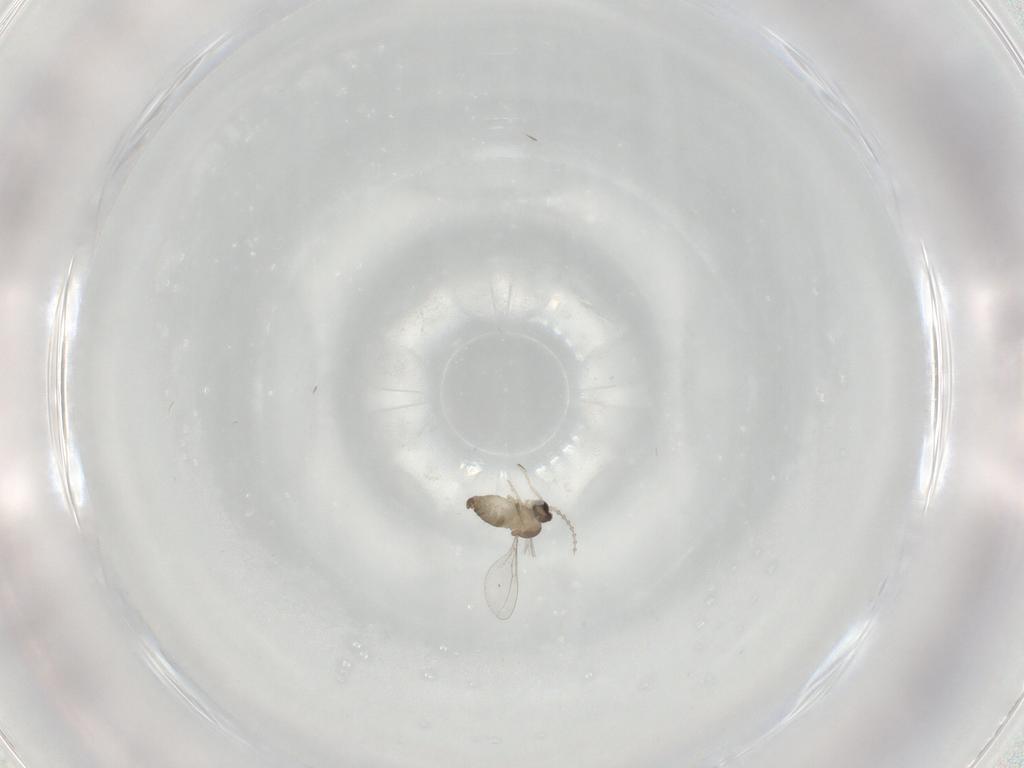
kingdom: Animalia
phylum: Arthropoda
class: Insecta
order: Diptera
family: Cecidomyiidae
